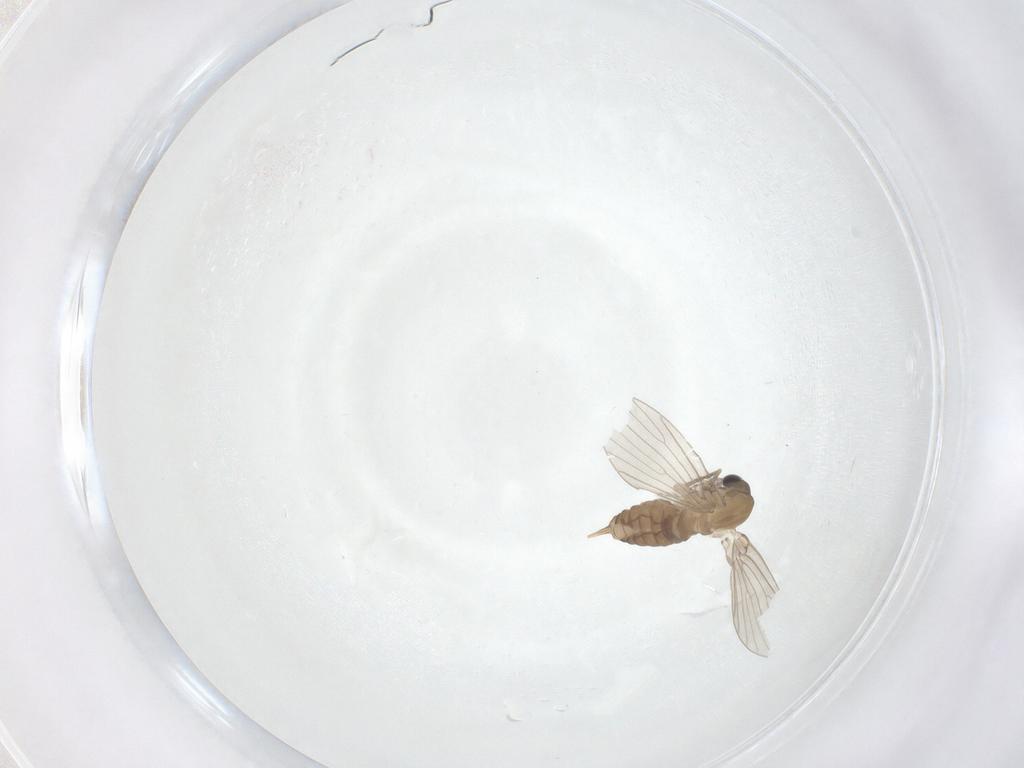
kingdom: Animalia
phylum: Arthropoda
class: Insecta
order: Diptera
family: Psychodidae
